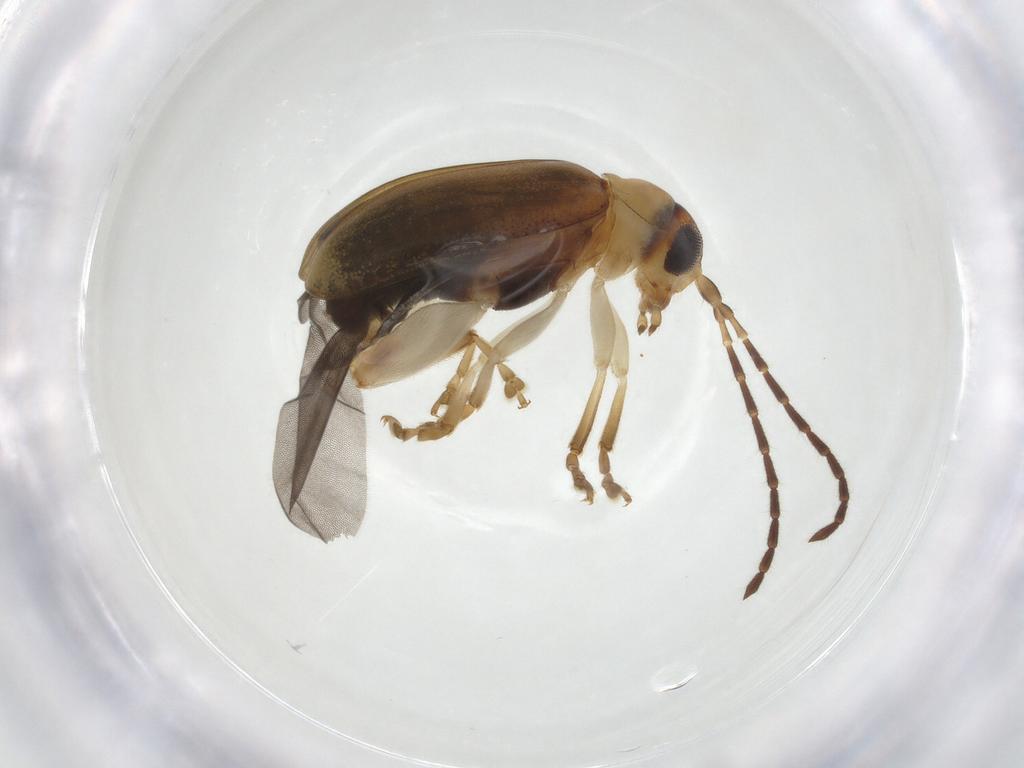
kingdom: Animalia
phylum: Arthropoda
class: Insecta
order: Coleoptera
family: Chrysomelidae
